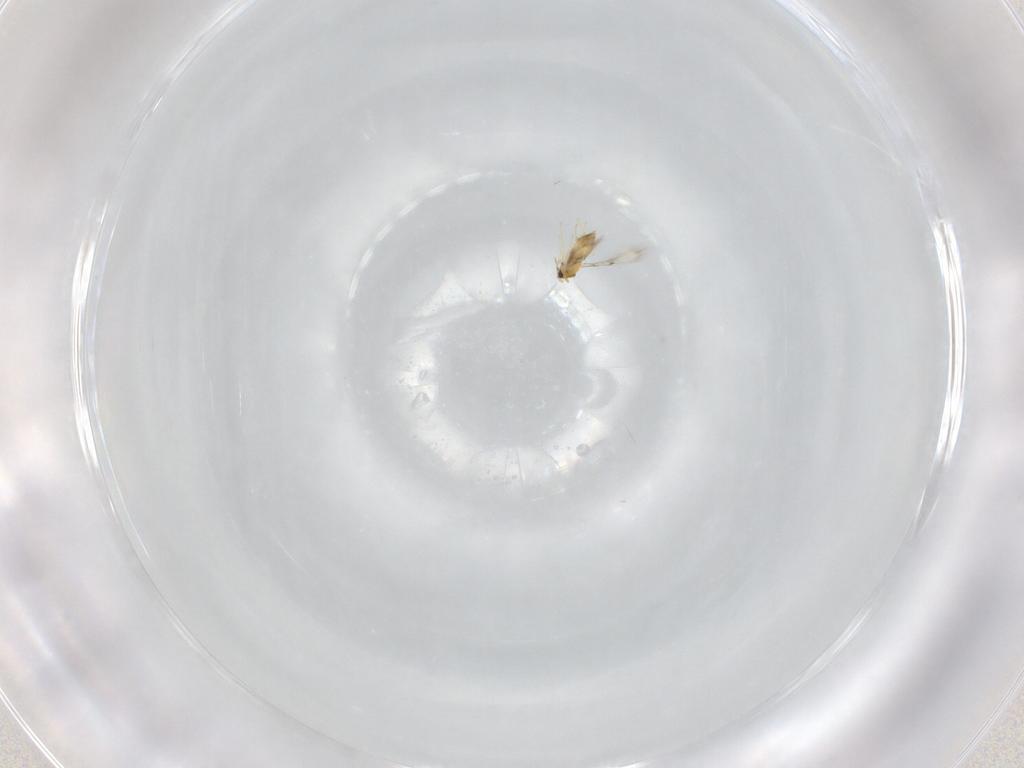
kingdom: Animalia
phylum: Arthropoda
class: Insecta
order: Hymenoptera
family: Trichogrammatidae
